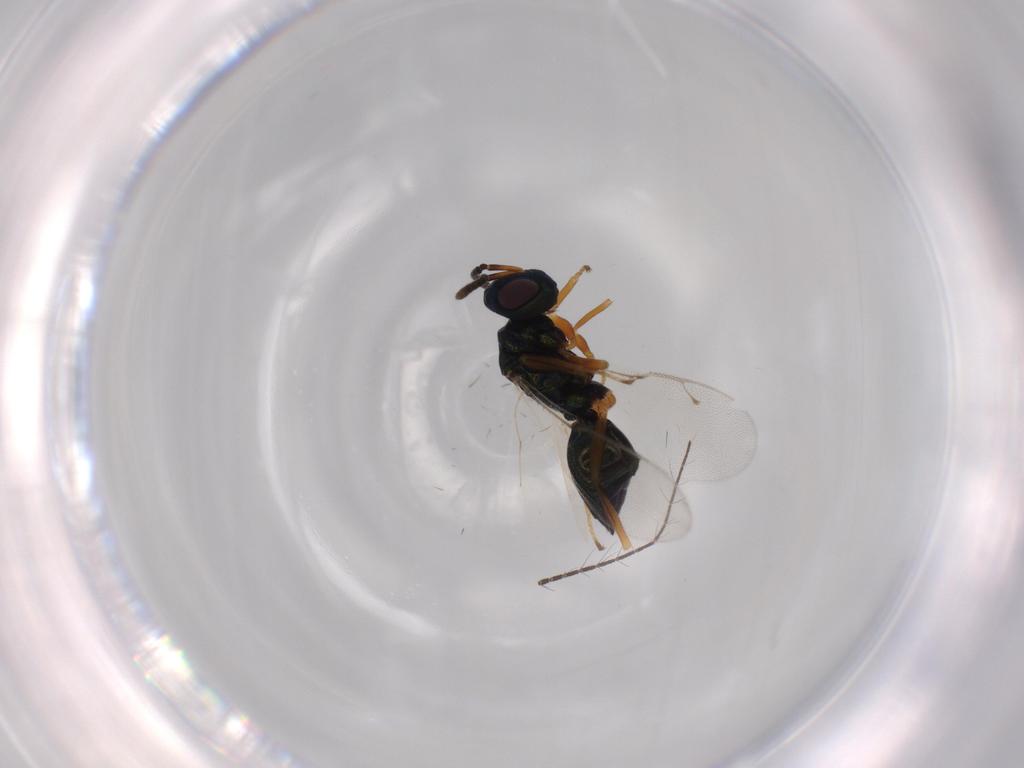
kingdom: Animalia
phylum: Arthropoda
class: Insecta
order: Hymenoptera
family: Pteromalidae
